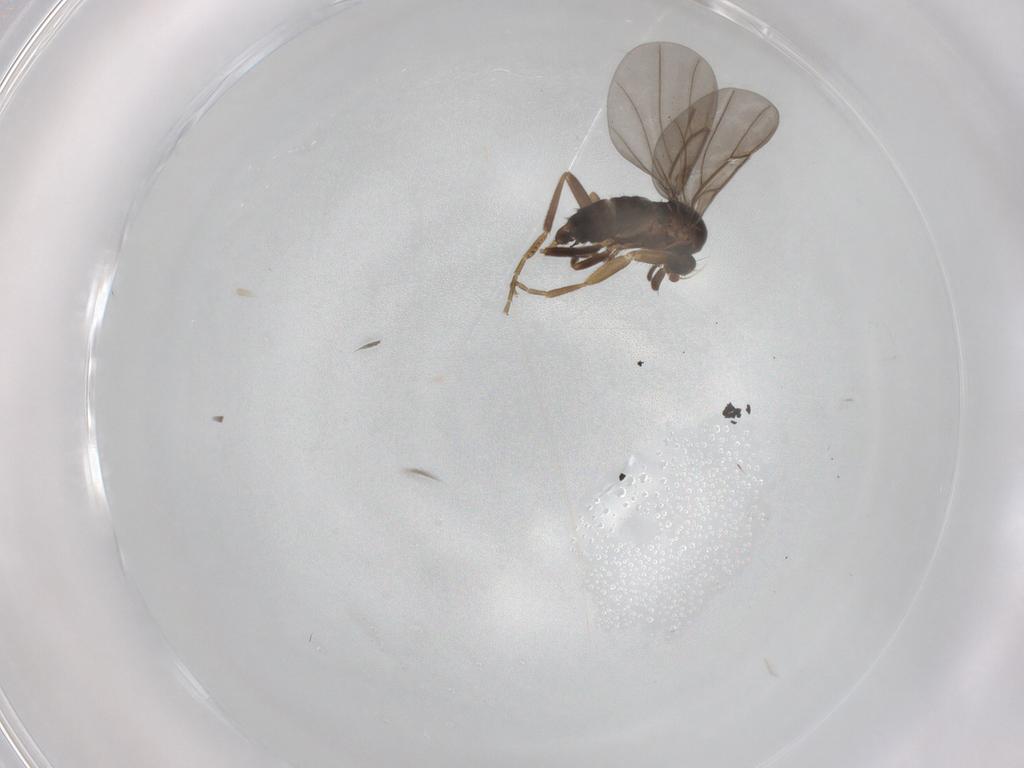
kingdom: Animalia
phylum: Arthropoda
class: Insecta
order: Diptera
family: Phoridae
